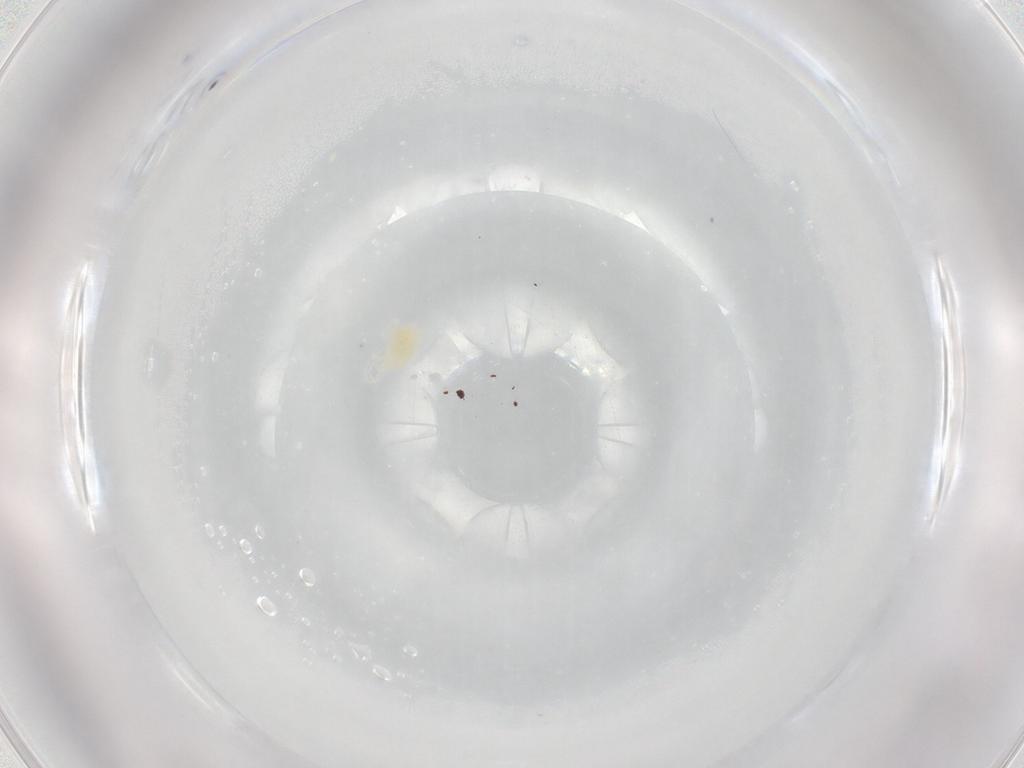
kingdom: Animalia
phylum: Arthropoda
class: Arachnida
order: Trombidiformes
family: Eupodidae
